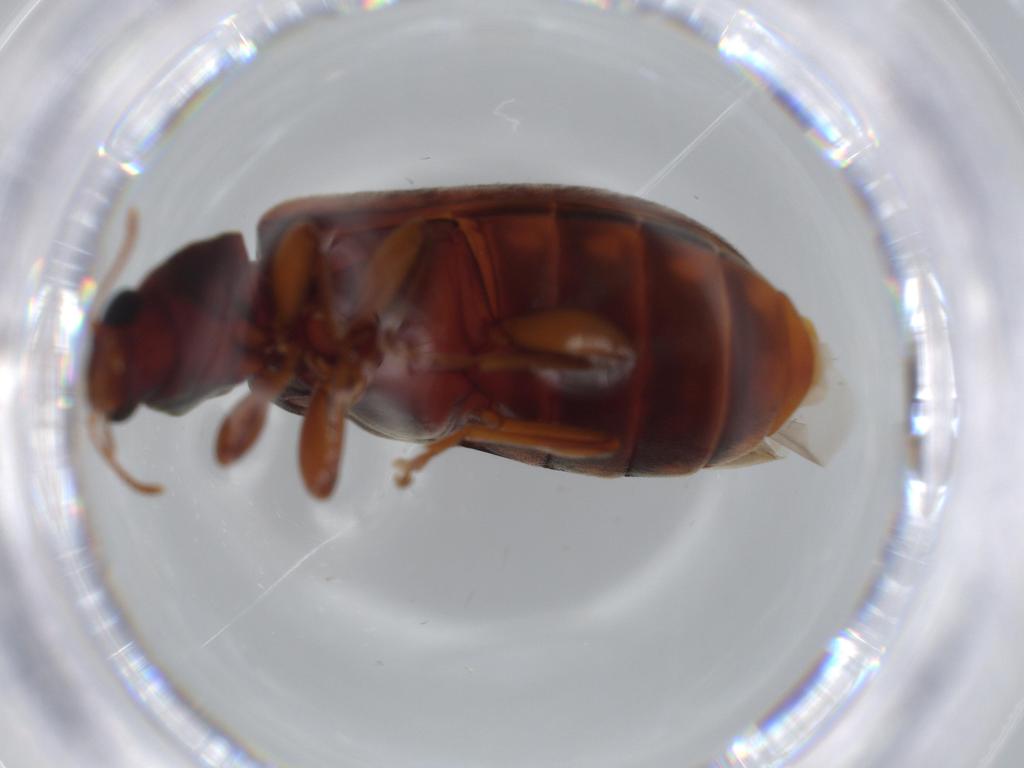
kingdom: Animalia
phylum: Arthropoda
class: Insecta
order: Coleoptera
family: Mycteridae
